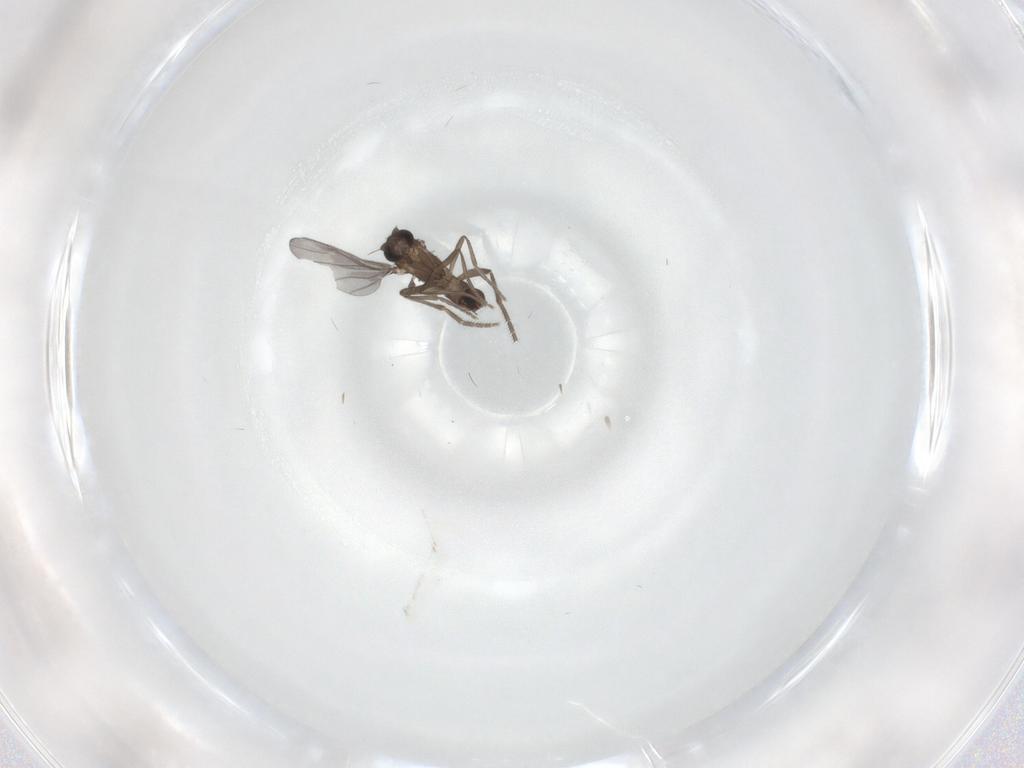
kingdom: Animalia
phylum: Arthropoda
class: Insecta
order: Diptera
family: Phoridae
